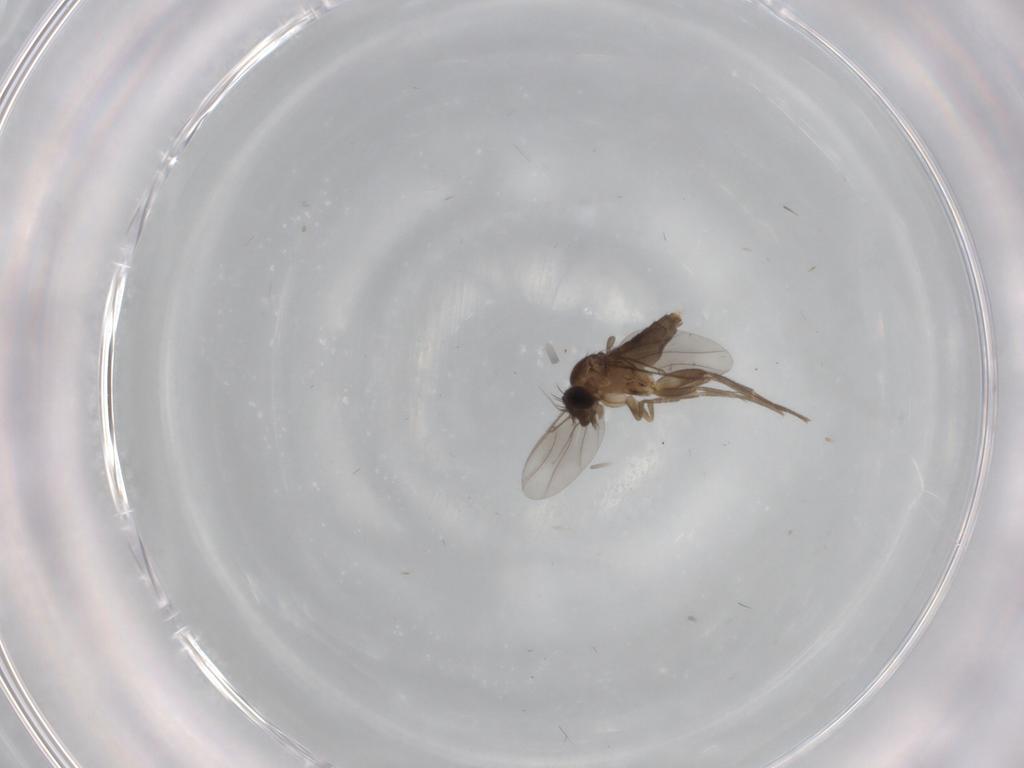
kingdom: Animalia
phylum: Arthropoda
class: Insecta
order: Diptera
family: Phoridae
